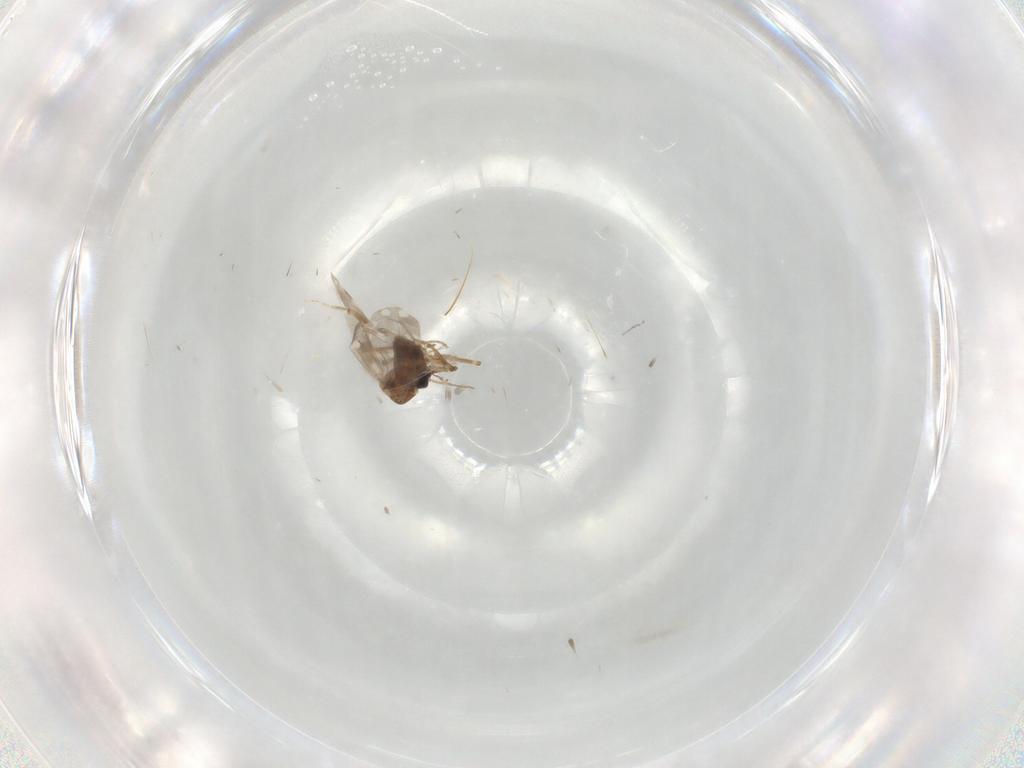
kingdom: Animalia
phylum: Arthropoda
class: Insecta
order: Diptera
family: Ceratopogonidae
